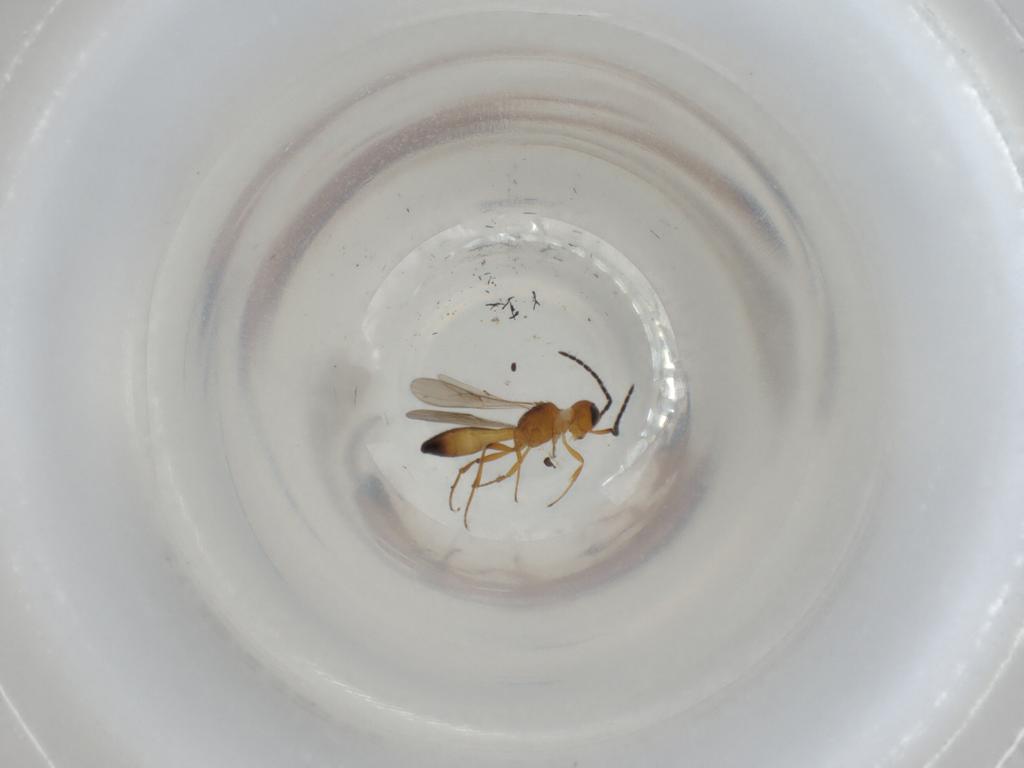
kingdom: Animalia
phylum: Arthropoda
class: Insecta
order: Hymenoptera
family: Scelionidae
